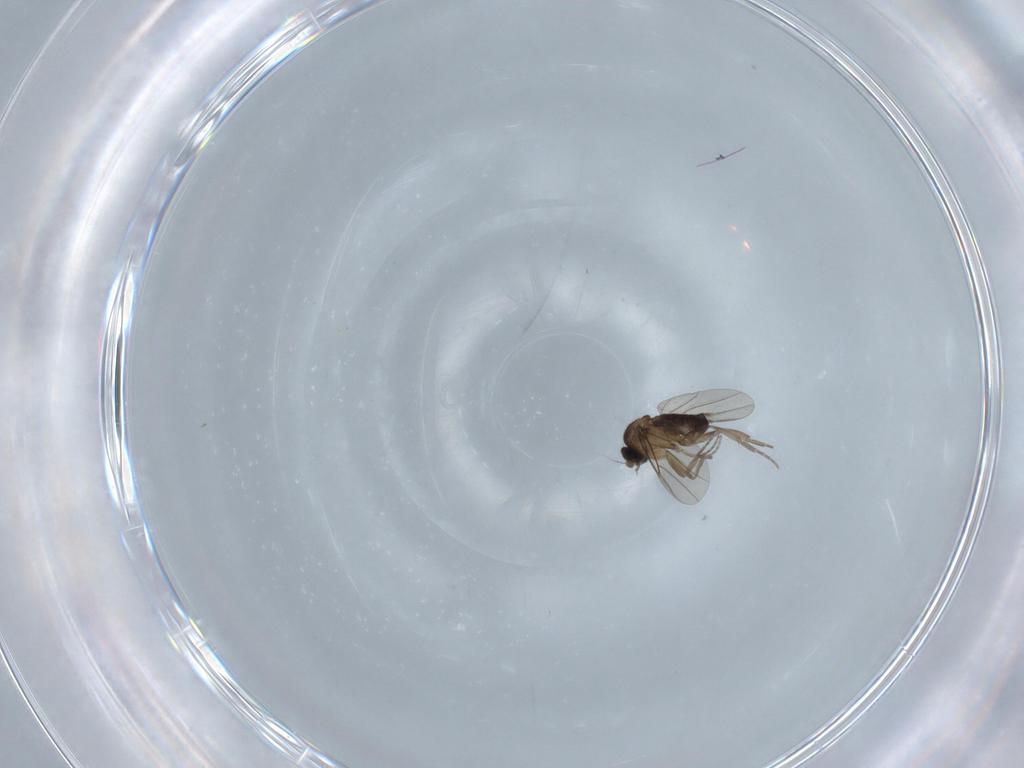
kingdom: Animalia
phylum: Arthropoda
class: Insecta
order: Diptera
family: Phoridae
